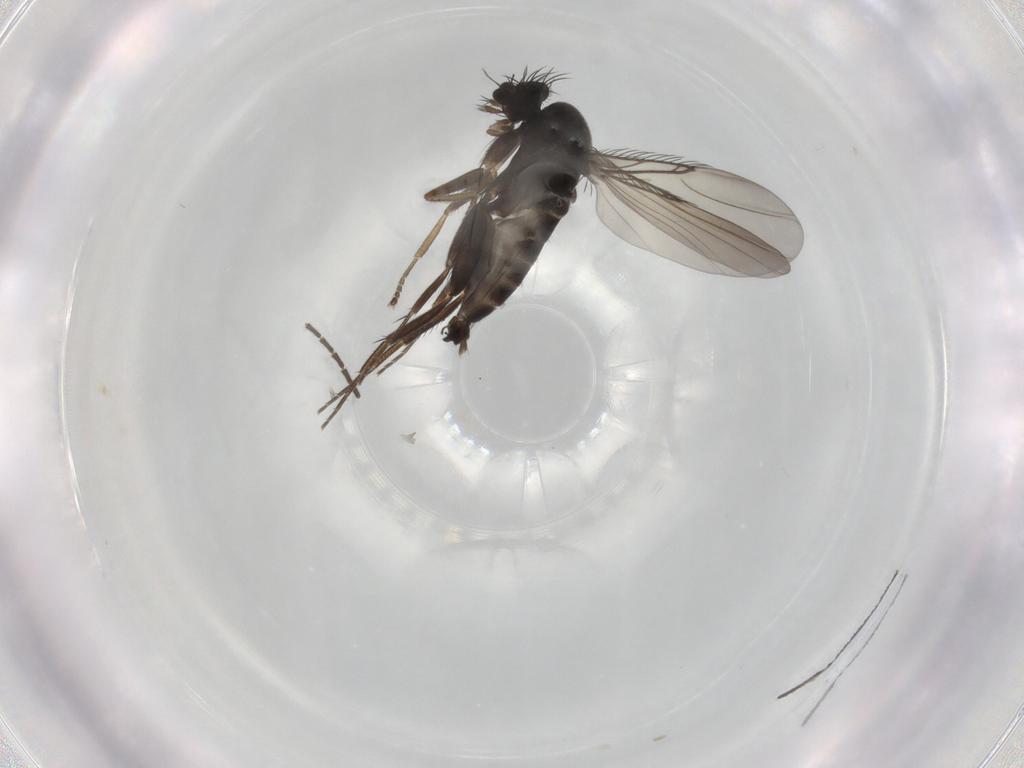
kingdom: Animalia
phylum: Arthropoda
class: Insecta
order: Diptera
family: Phoridae
